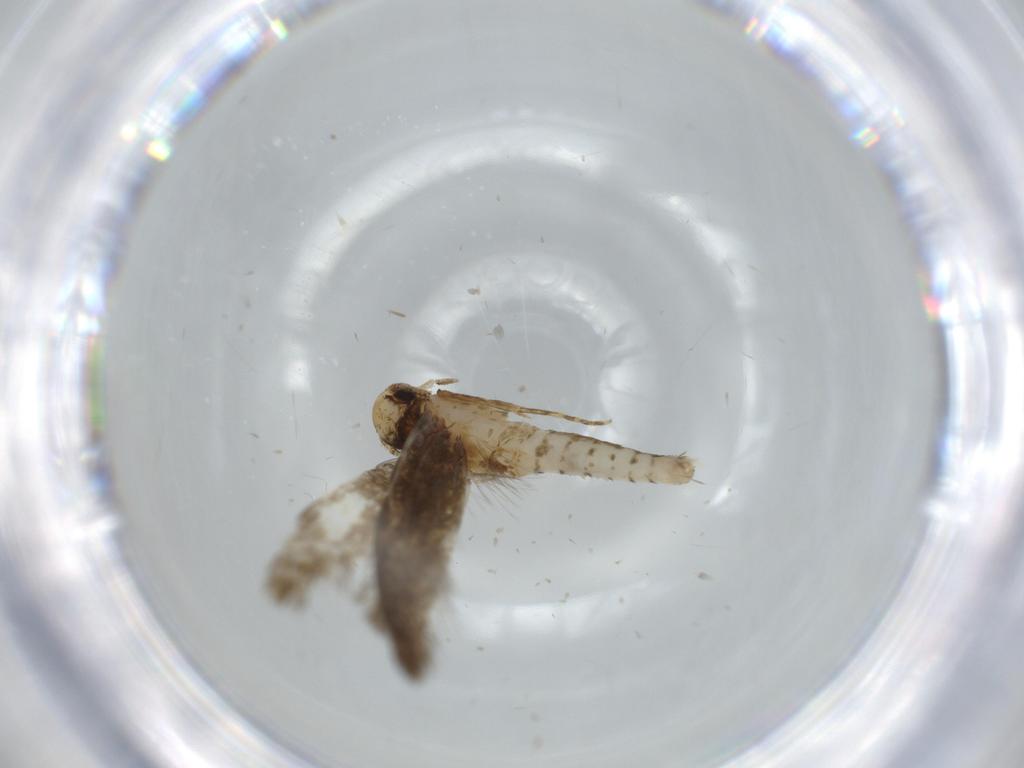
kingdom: Animalia
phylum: Arthropoda
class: Insecta
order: Lepidoptera
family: Tineidae
